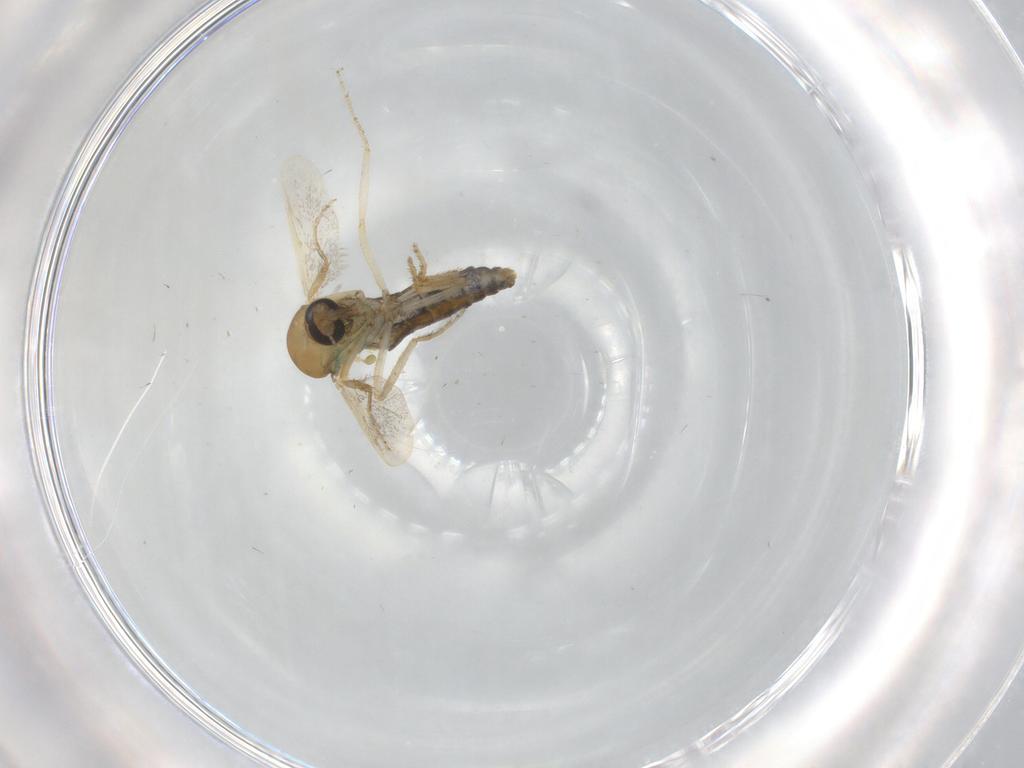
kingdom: Animalia
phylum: Arthropoda
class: Insecta
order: Diptera
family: Ceratopogonidae
